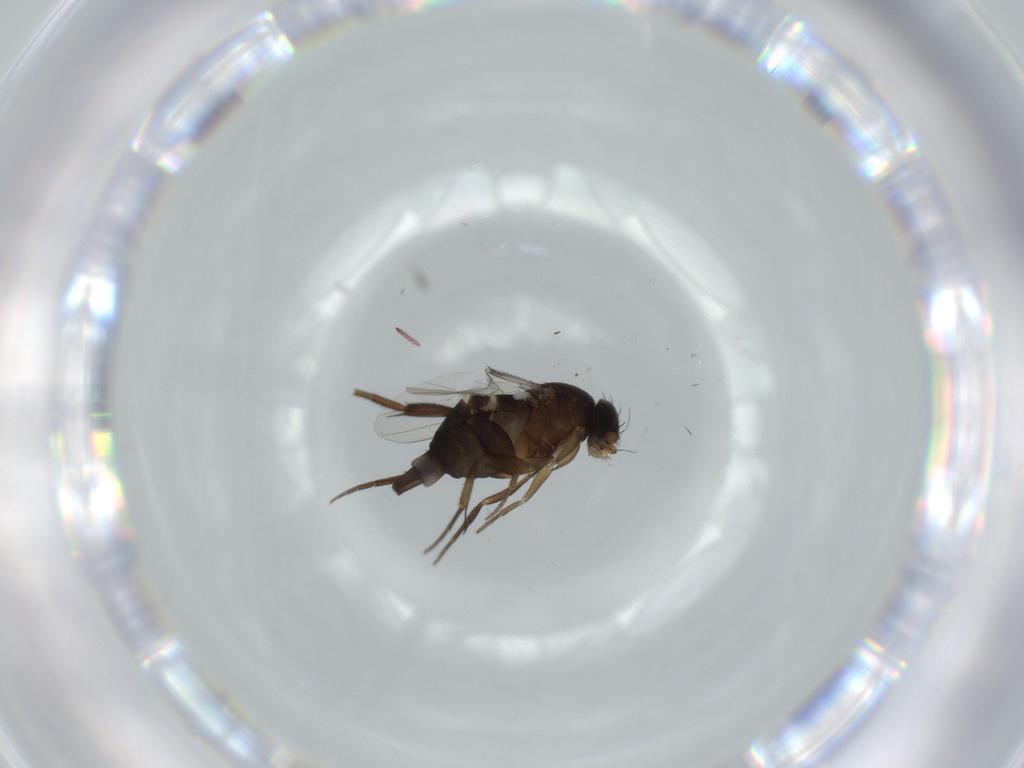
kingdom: Animalia
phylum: Arthropoda
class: Insecta
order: Diptera
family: Phoridae
